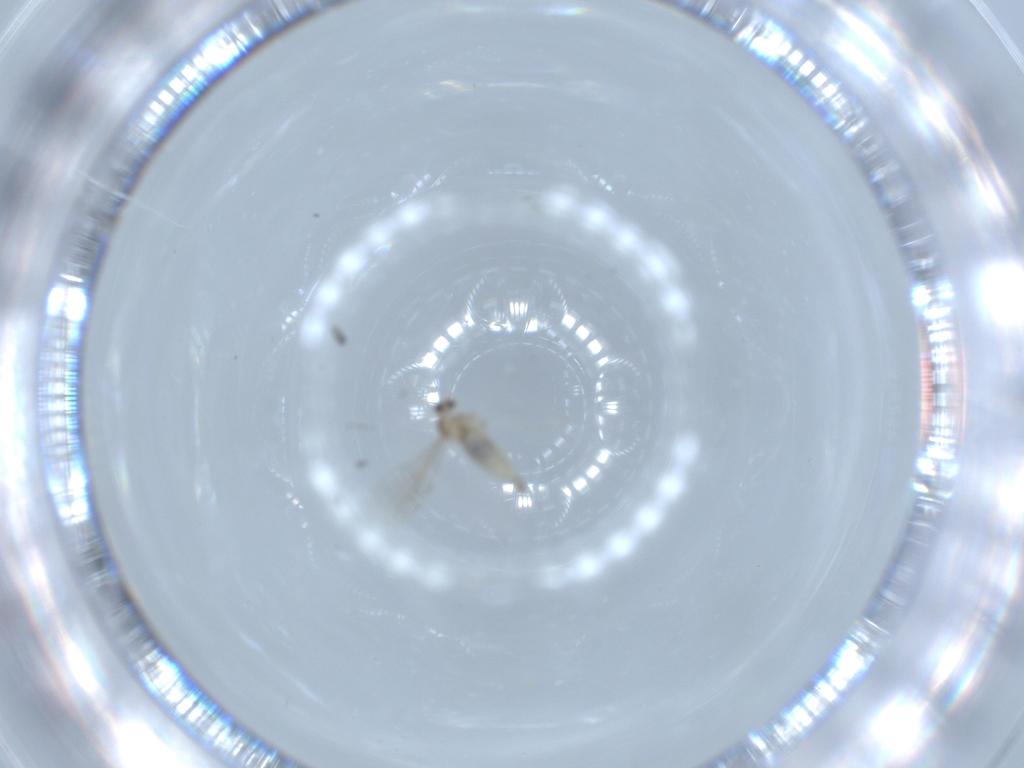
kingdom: Animalia
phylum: Arthropoda
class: Insecta
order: Diptera
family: Cecidomyiidae
